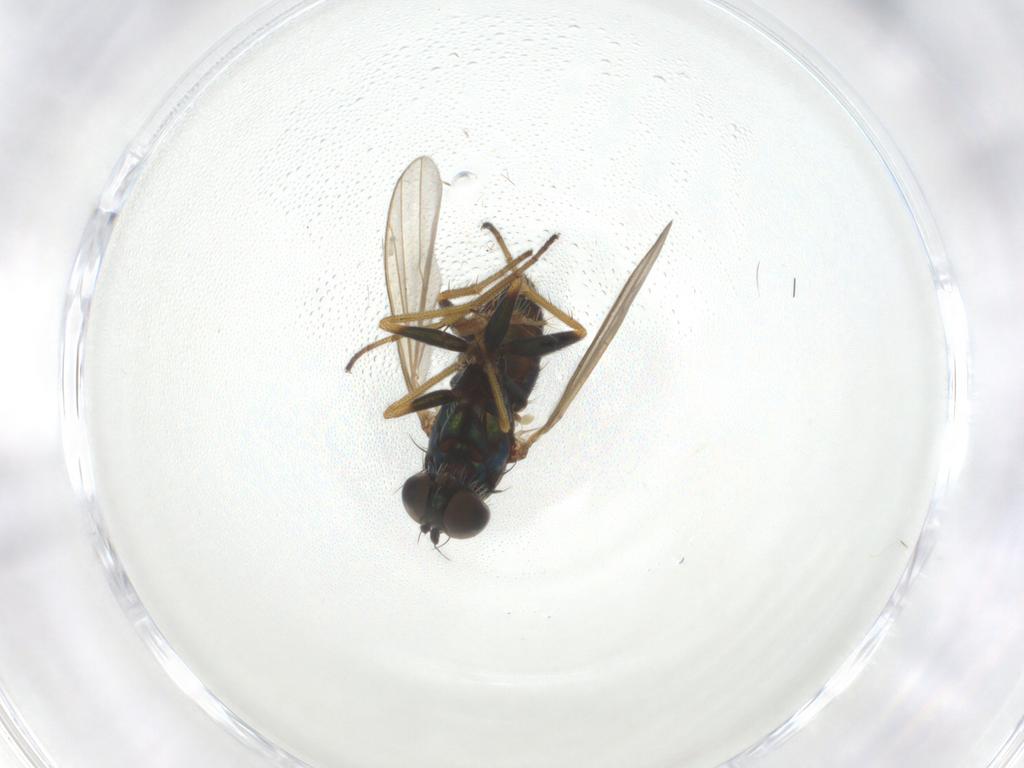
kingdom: Animalia
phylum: Arthropoda
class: Insecta
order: Diptera
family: Dolichopodidae
